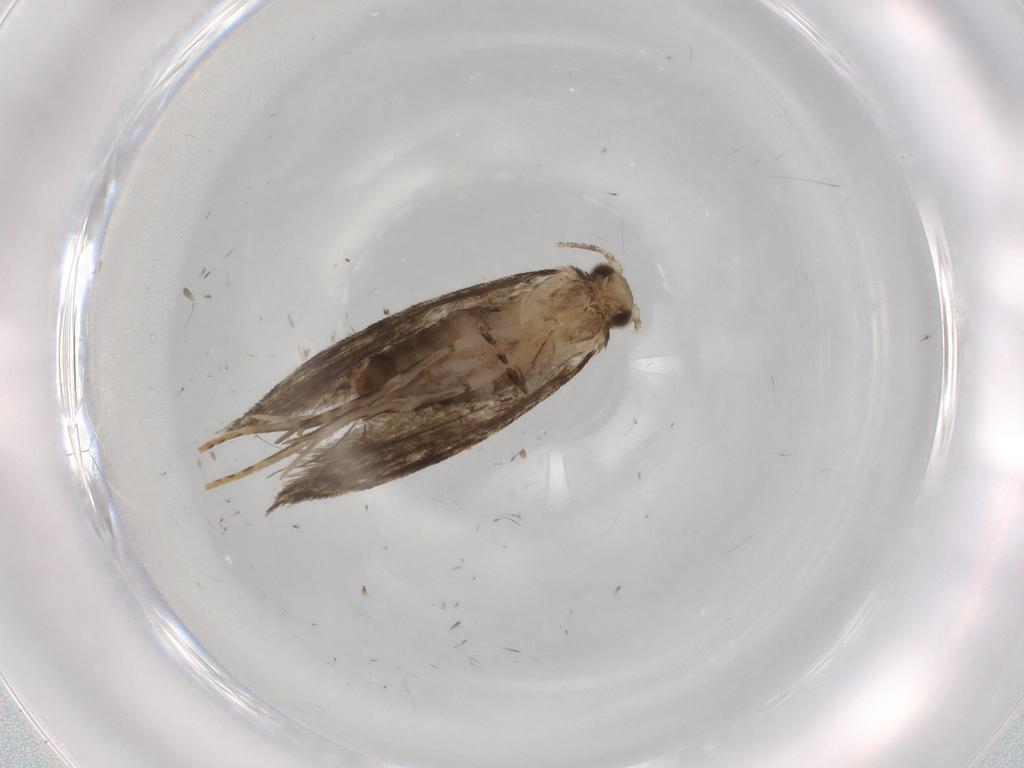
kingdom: Animalia
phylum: Arthropoda
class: Insecta
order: Lepidoptera
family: Tineidae
